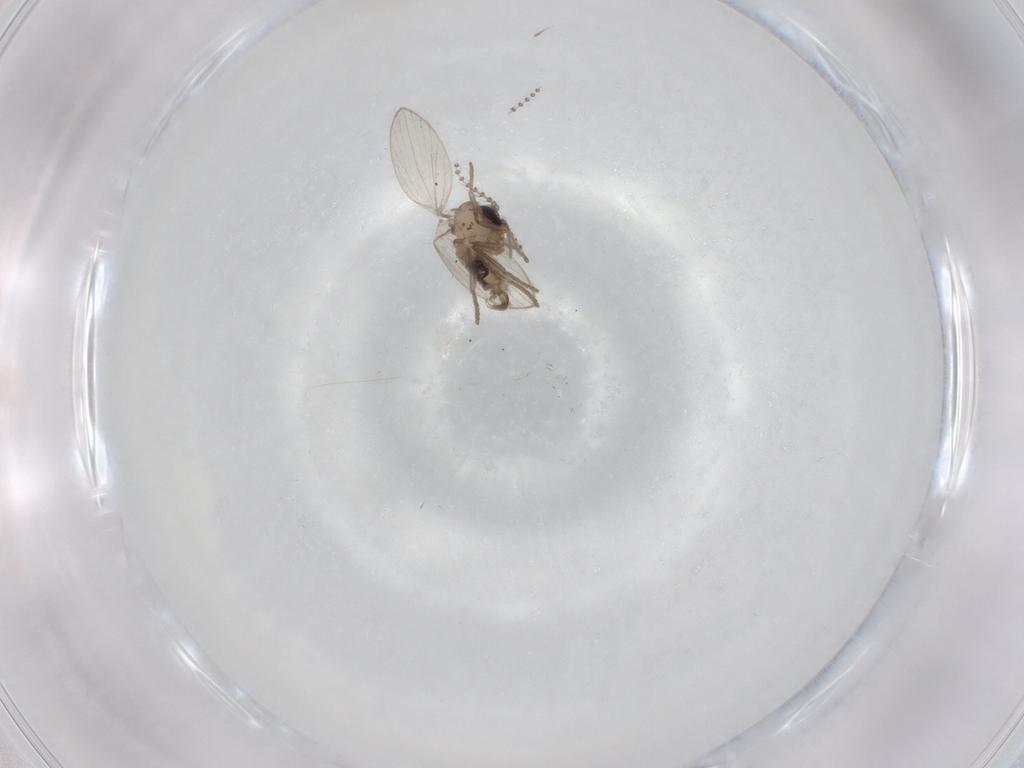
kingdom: Animalia
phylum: Arthropoda
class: Insecta
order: Diptera
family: Psychodidae
